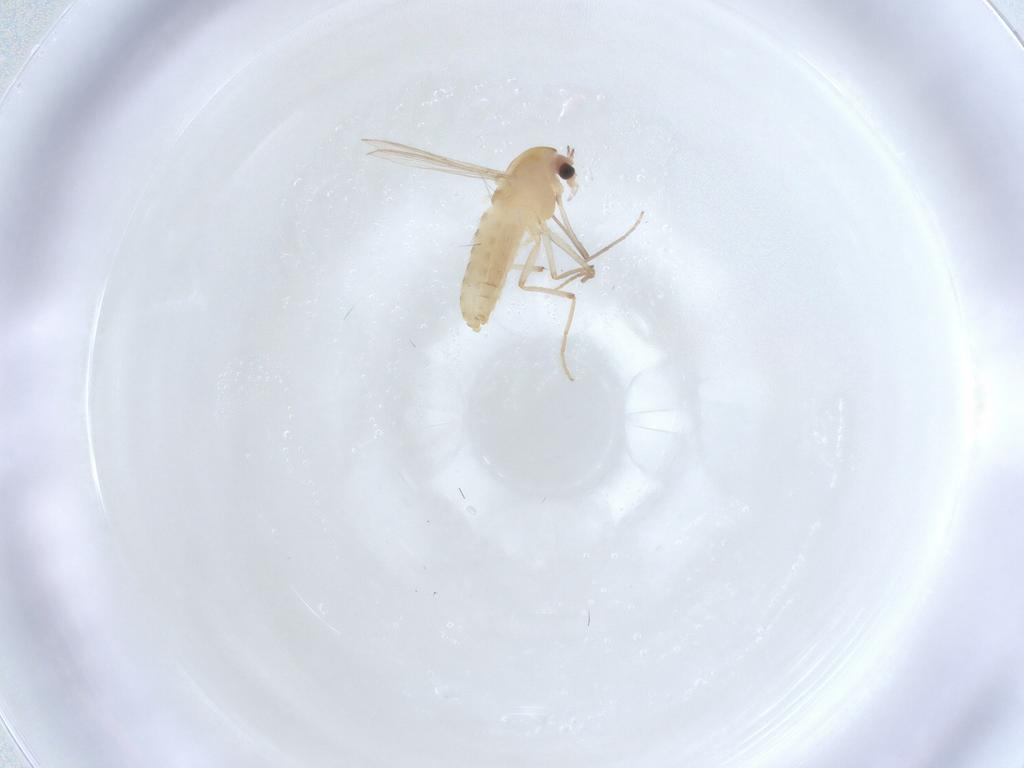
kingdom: Animalia
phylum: Arthropoda
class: Insecta
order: Diptera
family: Chironomidae
